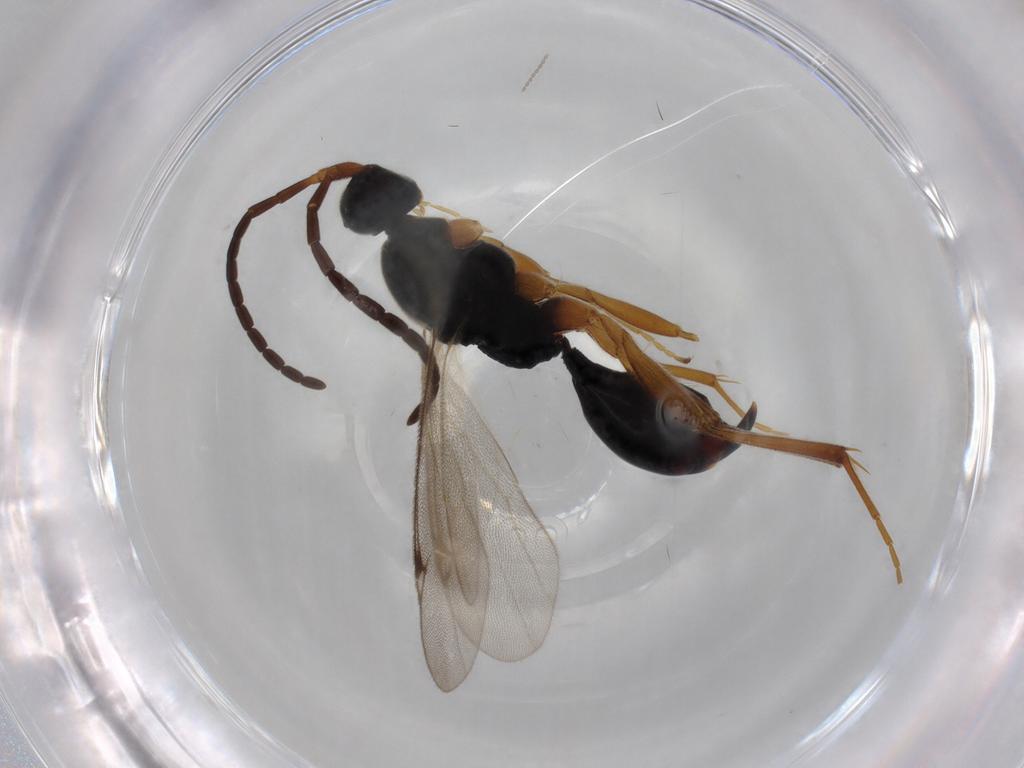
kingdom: Animalia
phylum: Arthropoda
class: Insecta
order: Hymenoptera
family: Proctotrupidae
